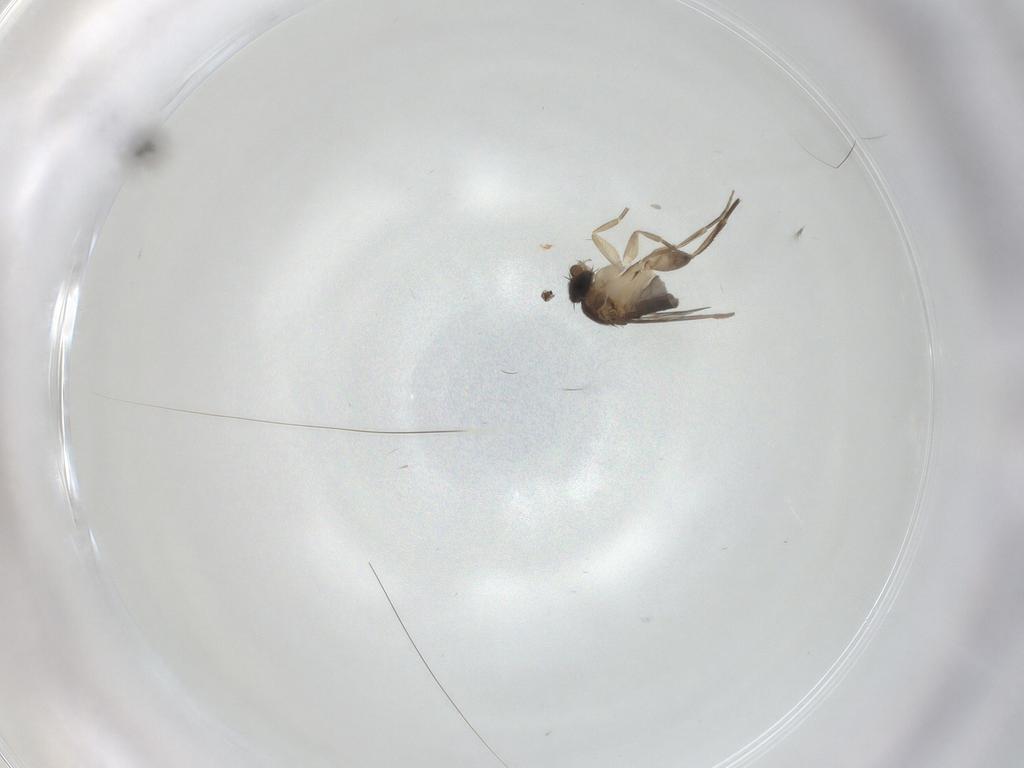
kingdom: Animalia
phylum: Arthropoda
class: Insecta
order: Diptera
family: Phoridae
